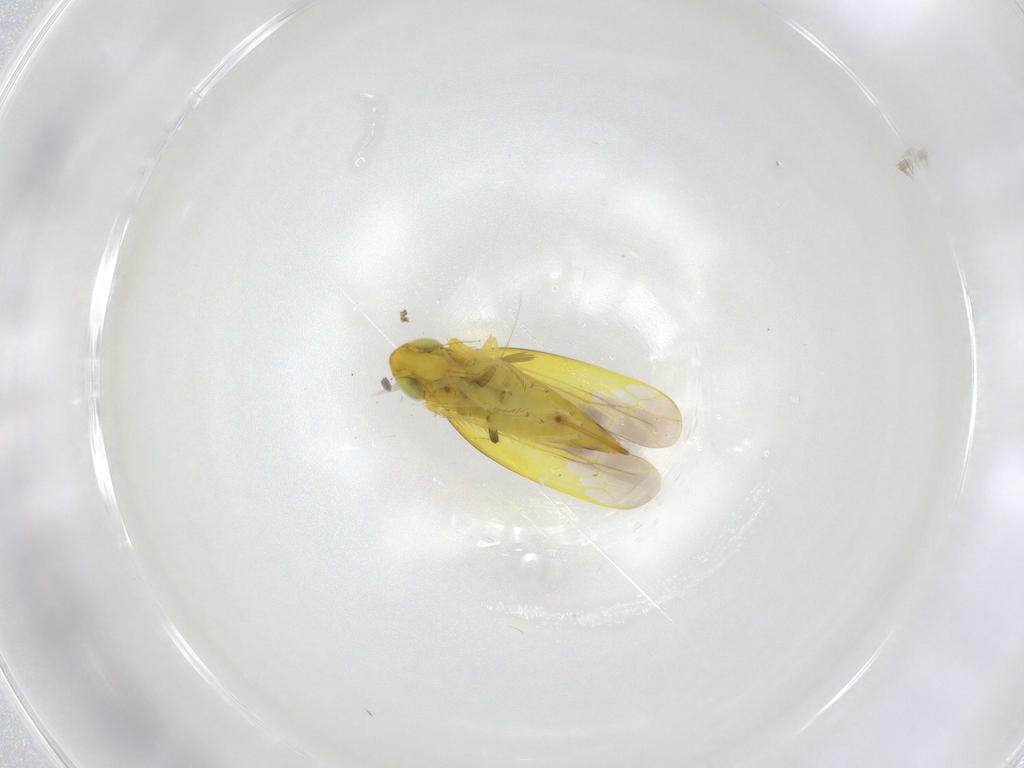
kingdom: Animalia
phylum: Arthropoda
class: Insecta
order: Hemiptera
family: Cicadellidae
